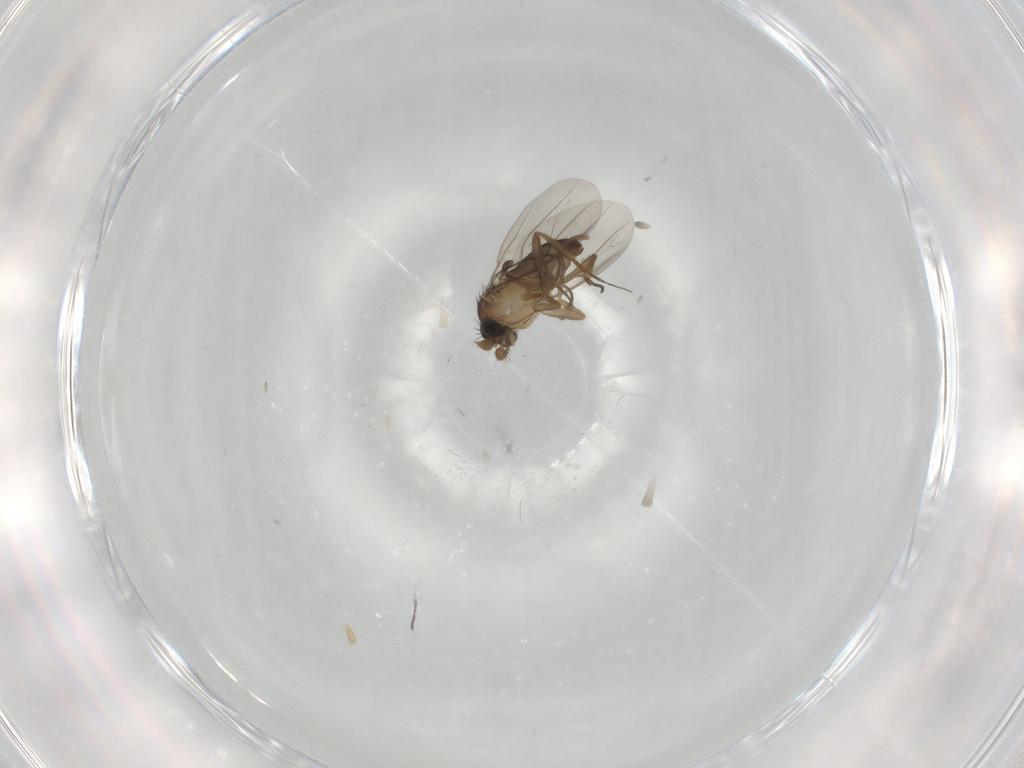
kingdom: Animalia
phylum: Arthropoda
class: Insecta
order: Diptera
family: Phoridae
